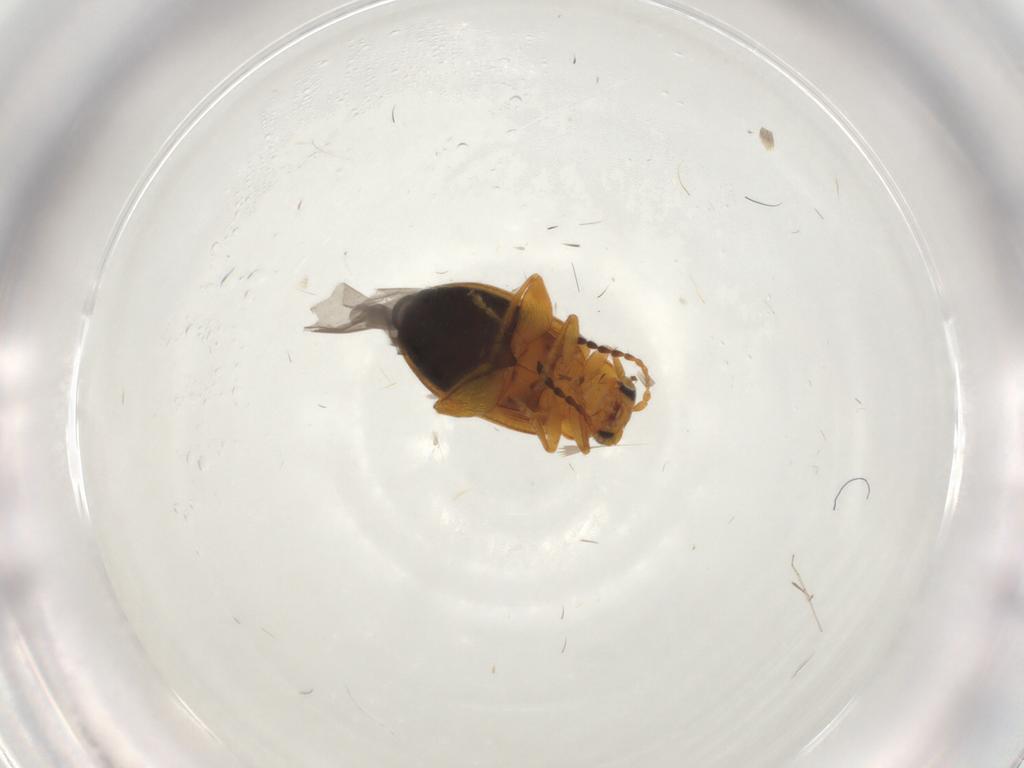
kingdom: Animalia
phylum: Arthropoda
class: Insecta
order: Coleoptera
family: Chrysomelidae
